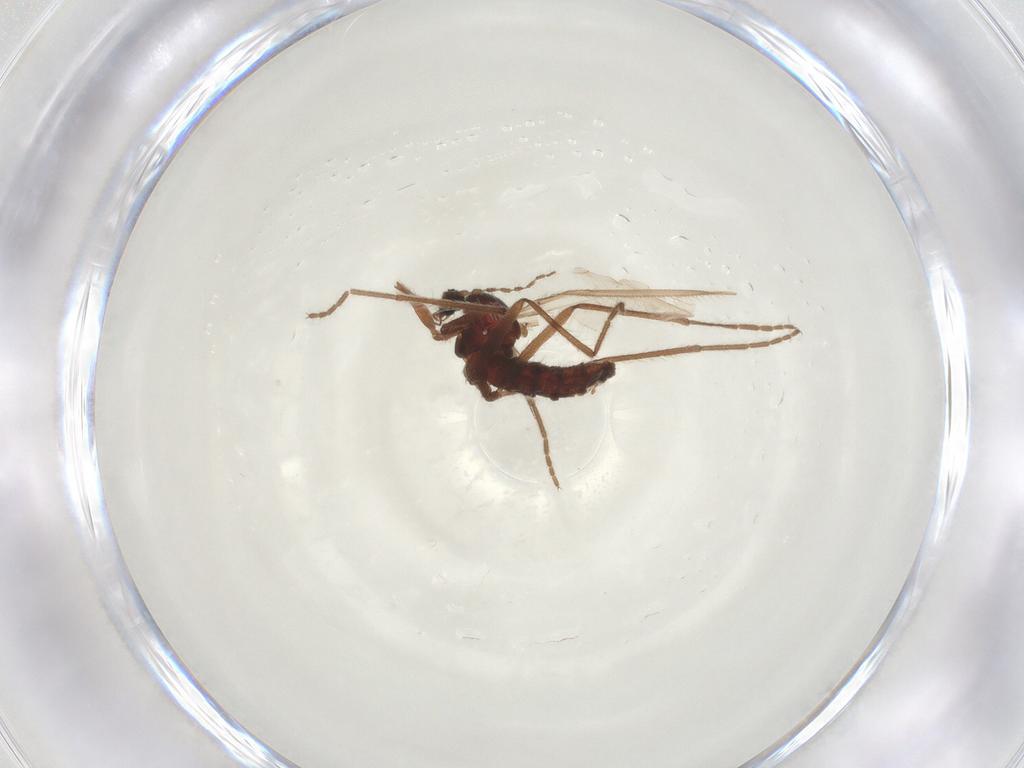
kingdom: Animalia
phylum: Arthropoda
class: Insecta
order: Diptera
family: Cecidomyiidae
